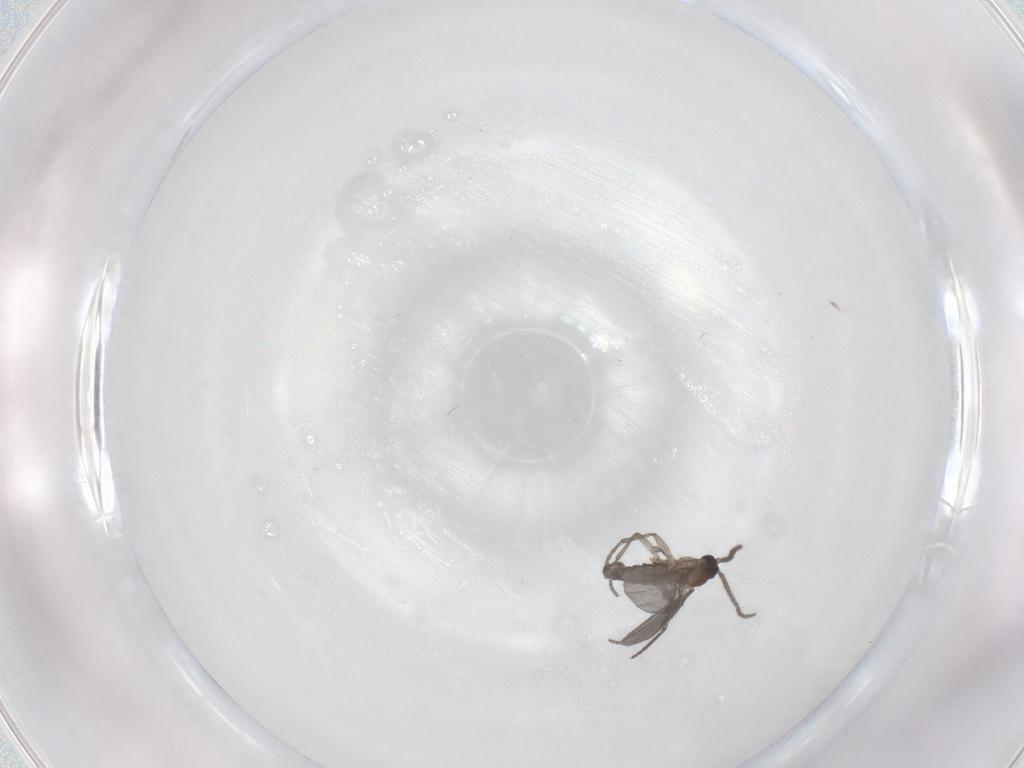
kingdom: Animalia
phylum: Arthropoda
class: Insecta
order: Diptera
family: Sciaridae
